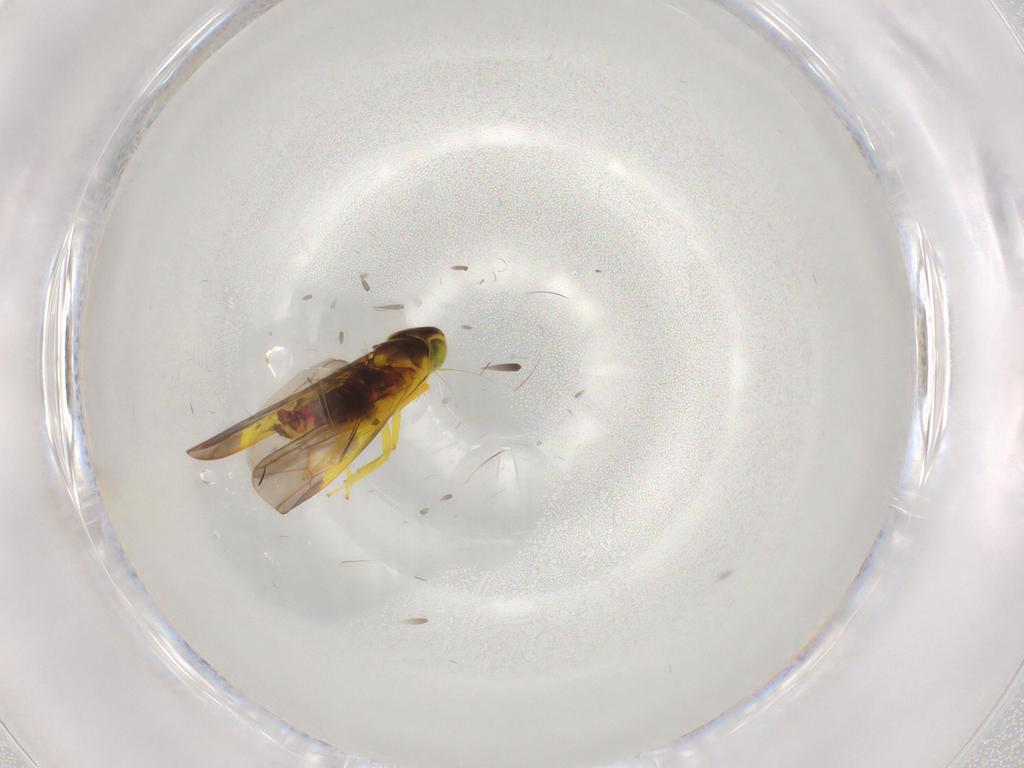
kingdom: Animalia
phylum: Arthropoda
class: Insecta
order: Hemiptera
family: Cicadellidae
